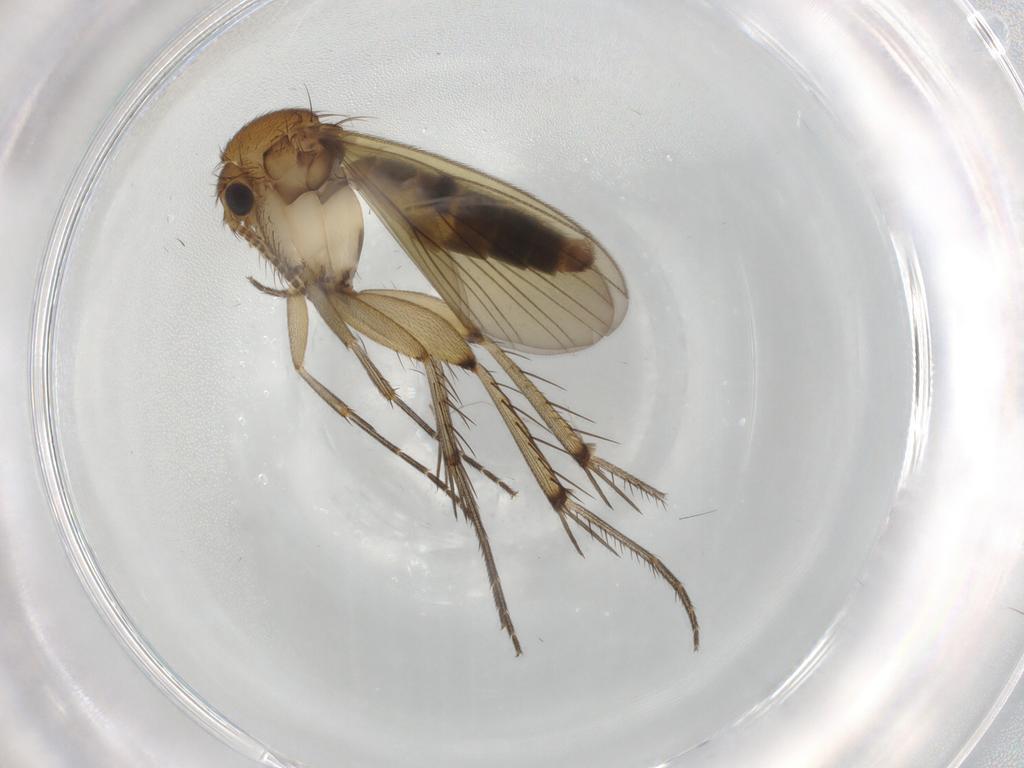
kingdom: Animalia
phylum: Arthropoda
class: Insecta
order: Diptera
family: Mycetophilidae
